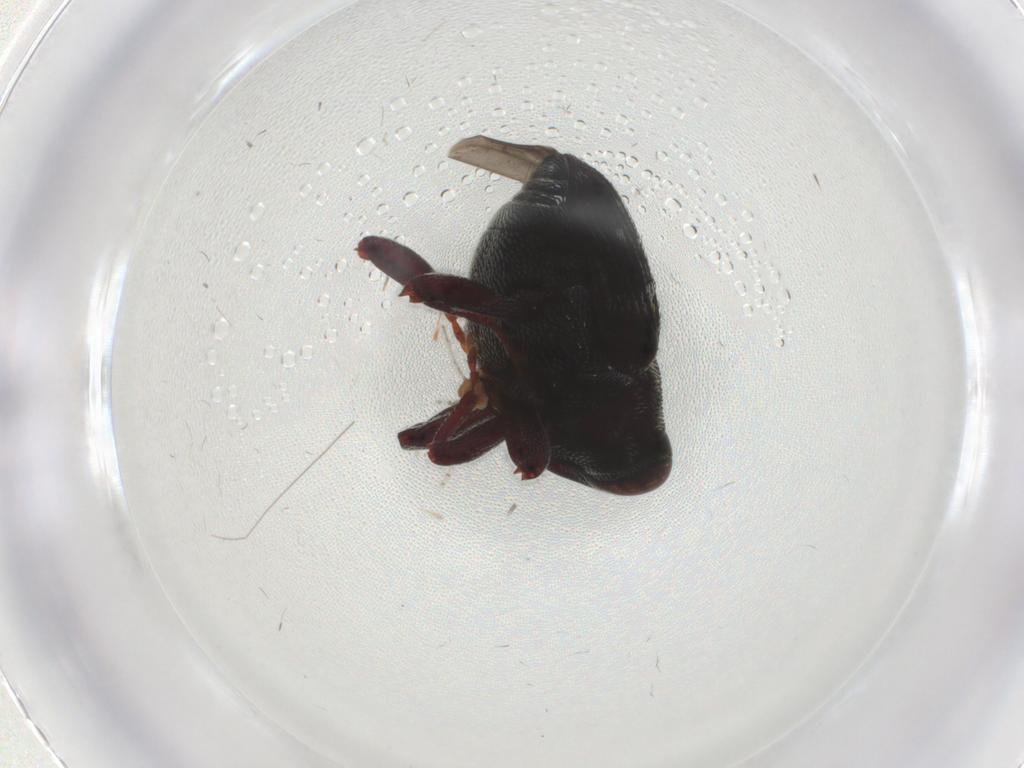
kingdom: Animalia
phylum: Arthropoda
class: Insecta
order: Coleoptera
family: Curculionidae
